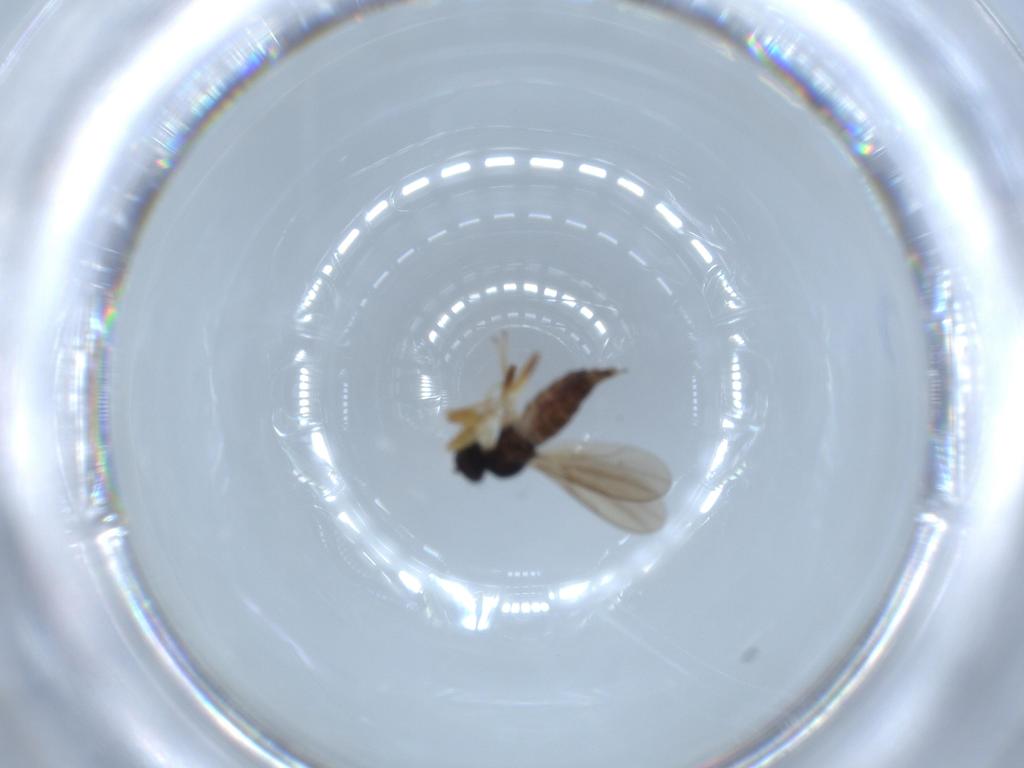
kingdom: Animalia
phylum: Arthropoda
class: Insecta
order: Diptera
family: Hybotidae
